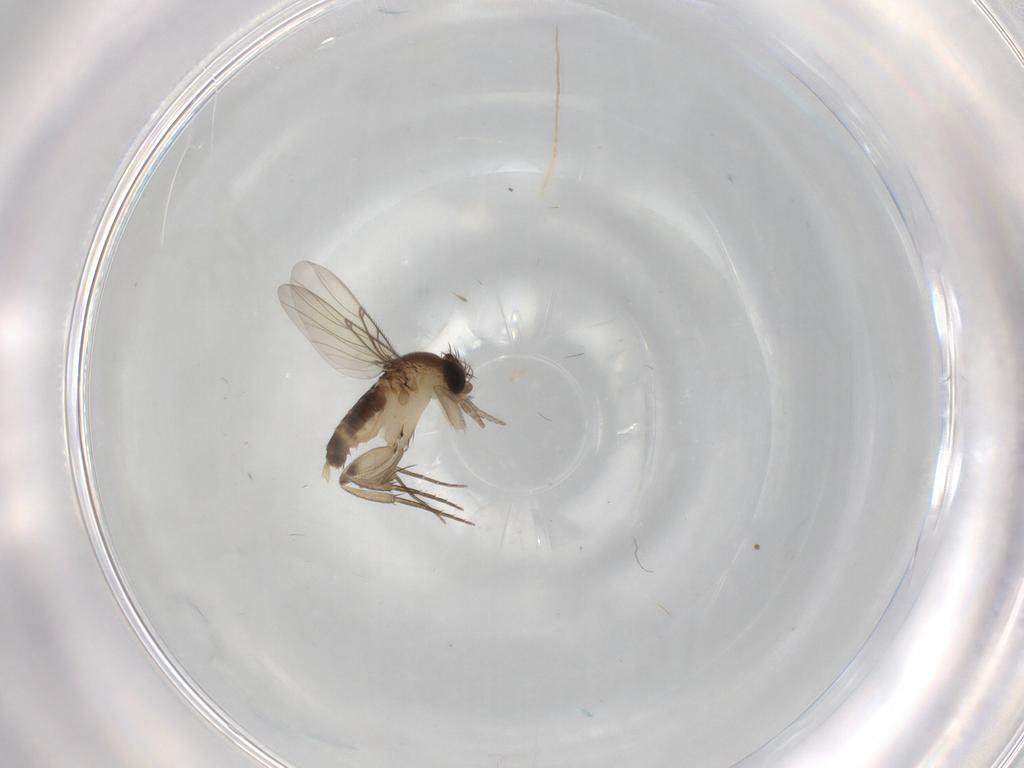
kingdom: Animalia
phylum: Arthropoda
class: Insecta
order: Diptera
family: Phoridae
